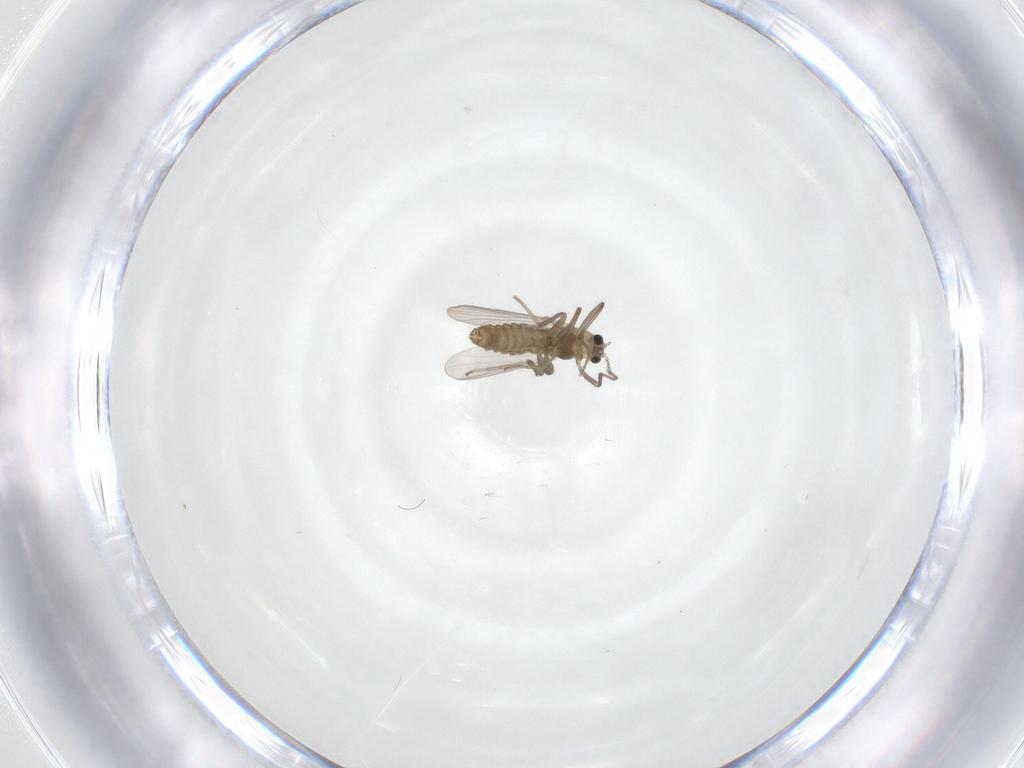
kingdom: Animalia
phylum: Arthropoda
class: Insecta
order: Diptera
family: Chironomidae
